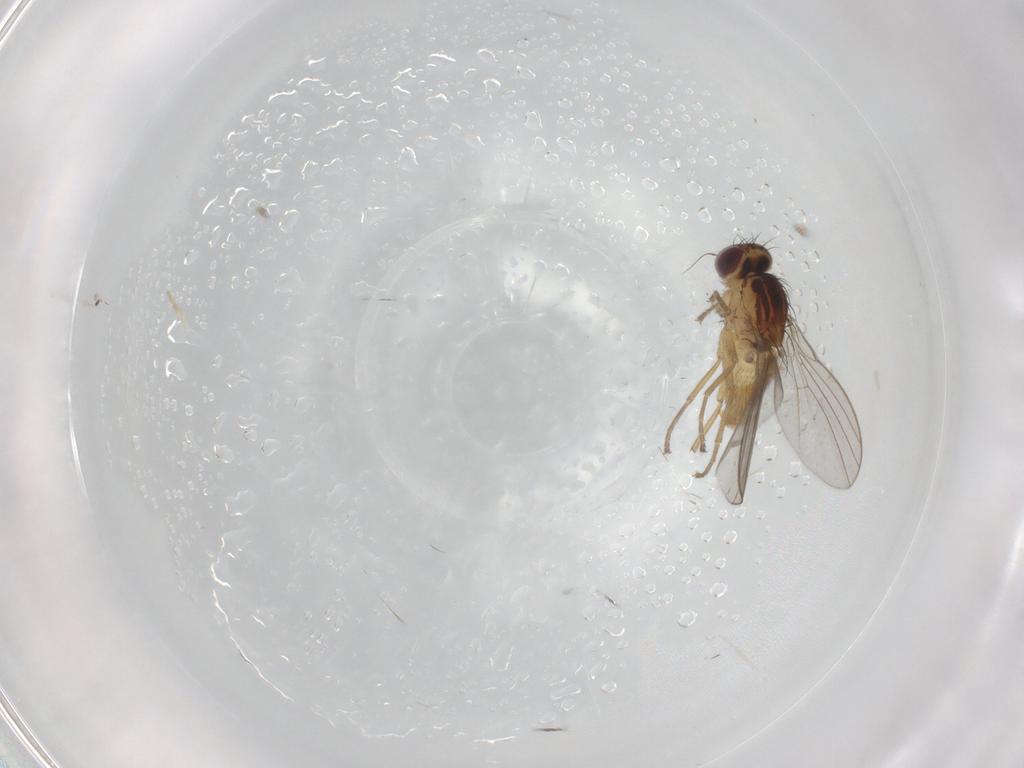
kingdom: Animalia
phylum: Arthropoda
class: Insecta
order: Diptera
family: Agromyzidae
